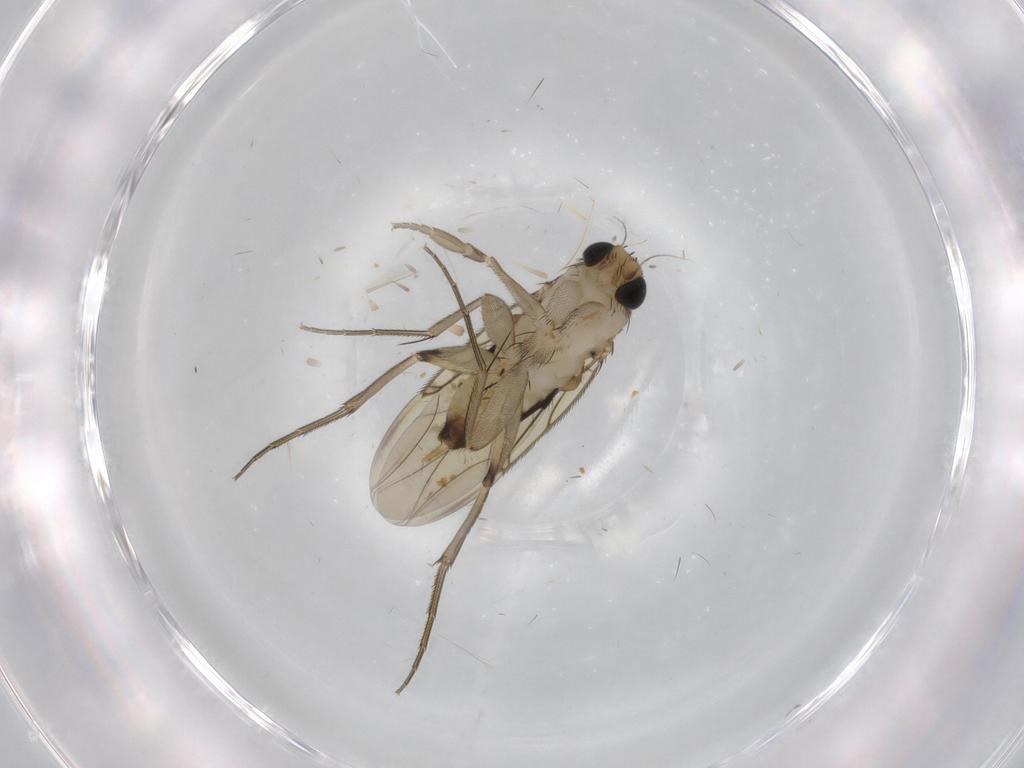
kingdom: Animalia
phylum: Arthropoda
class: Insecta
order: Diptera
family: Phoridae
